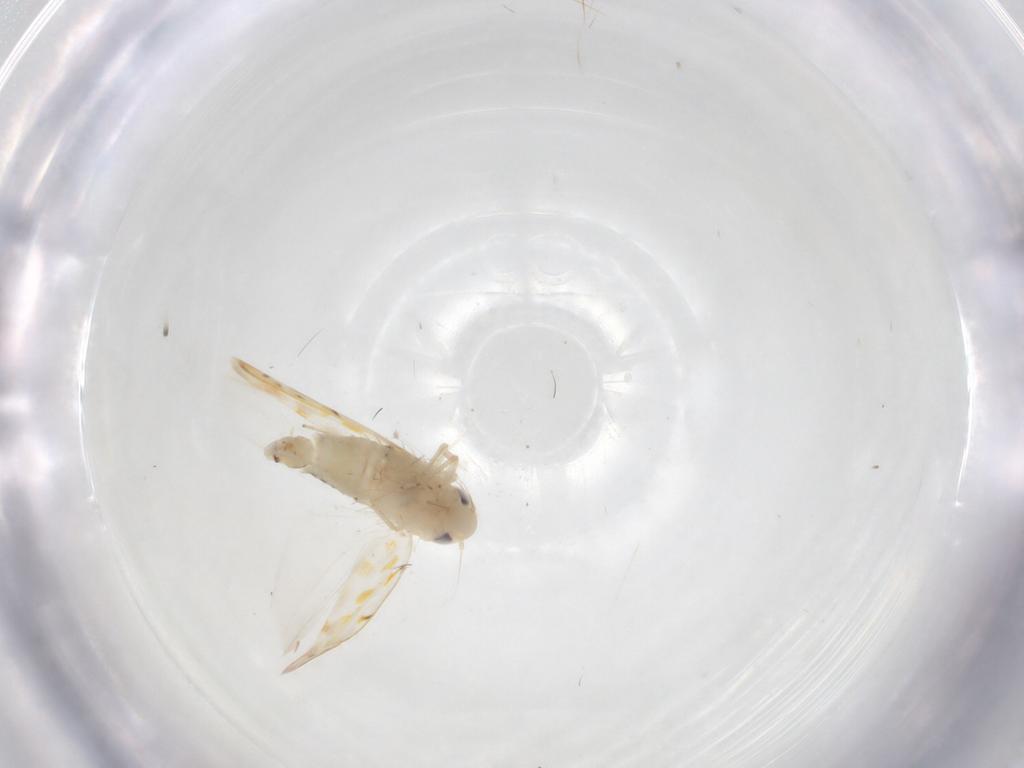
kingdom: Animalia
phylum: Arthropoda
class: Insecta
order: Hemiptera
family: Cicadellidae
